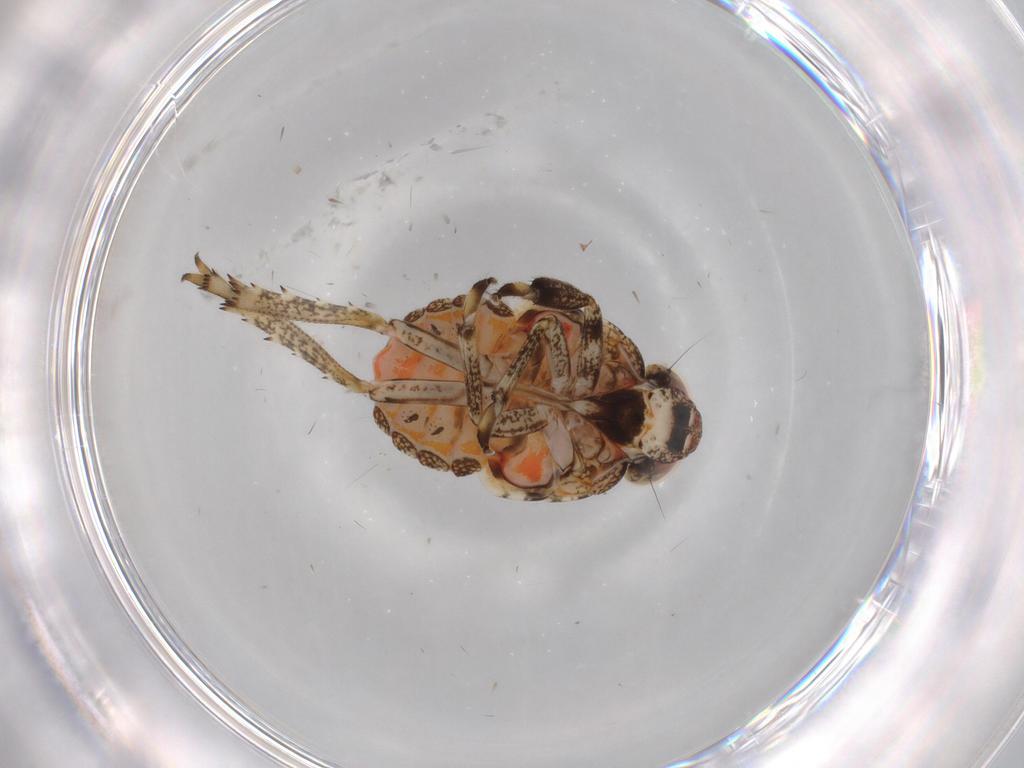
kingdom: Animalia
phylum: Arthropoda
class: Insecta
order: Hemiptera
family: Issidae
